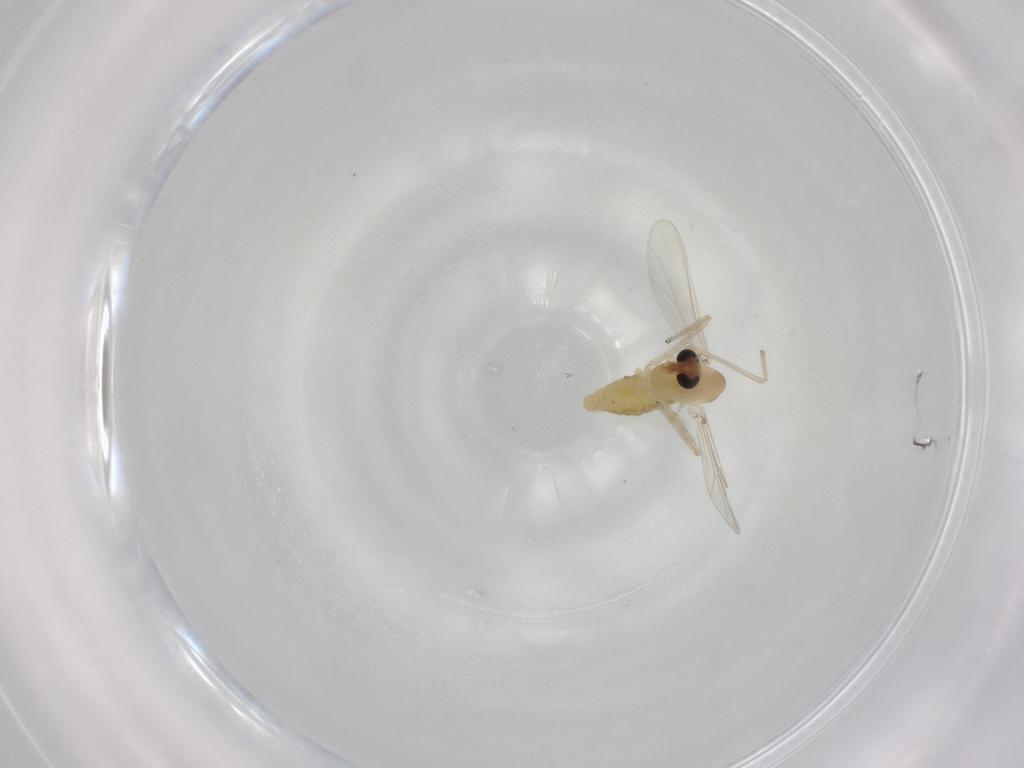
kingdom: Animalia
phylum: Arthropoda
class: Insecta
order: Diptera
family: Chironomidae
